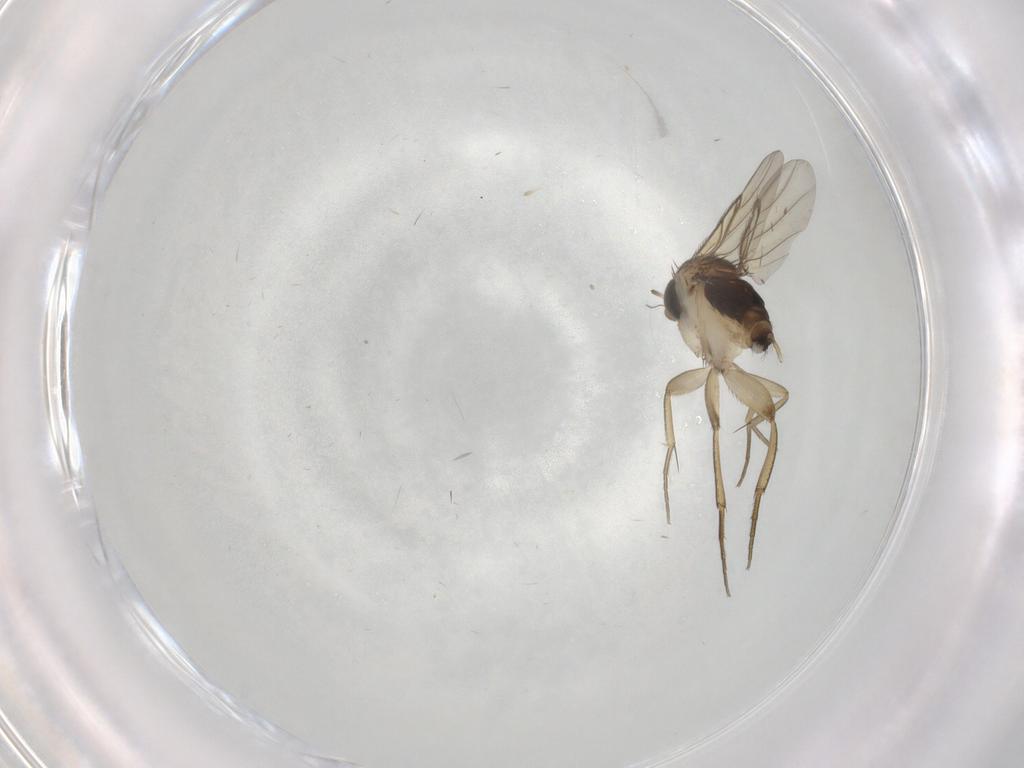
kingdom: Animalia
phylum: Arthropoda
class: Insecta
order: Diptera
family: Phoridae
